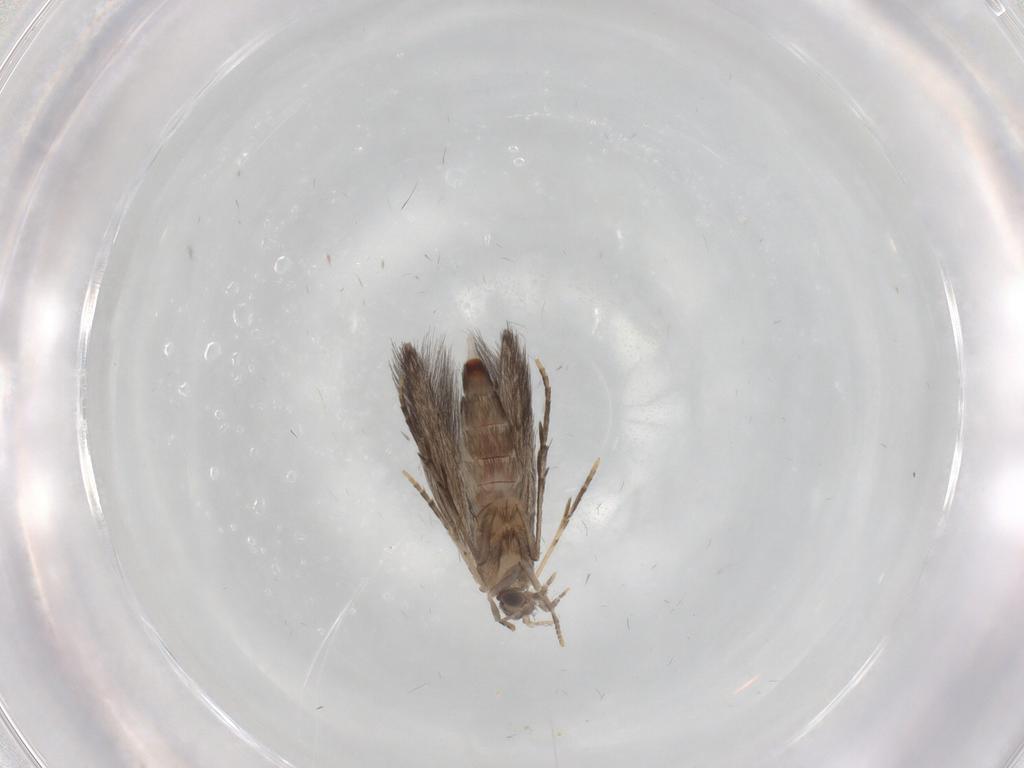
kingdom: Animalia
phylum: Arthropoda
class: Insecta
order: Trichoptera
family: Hydroptilidae
